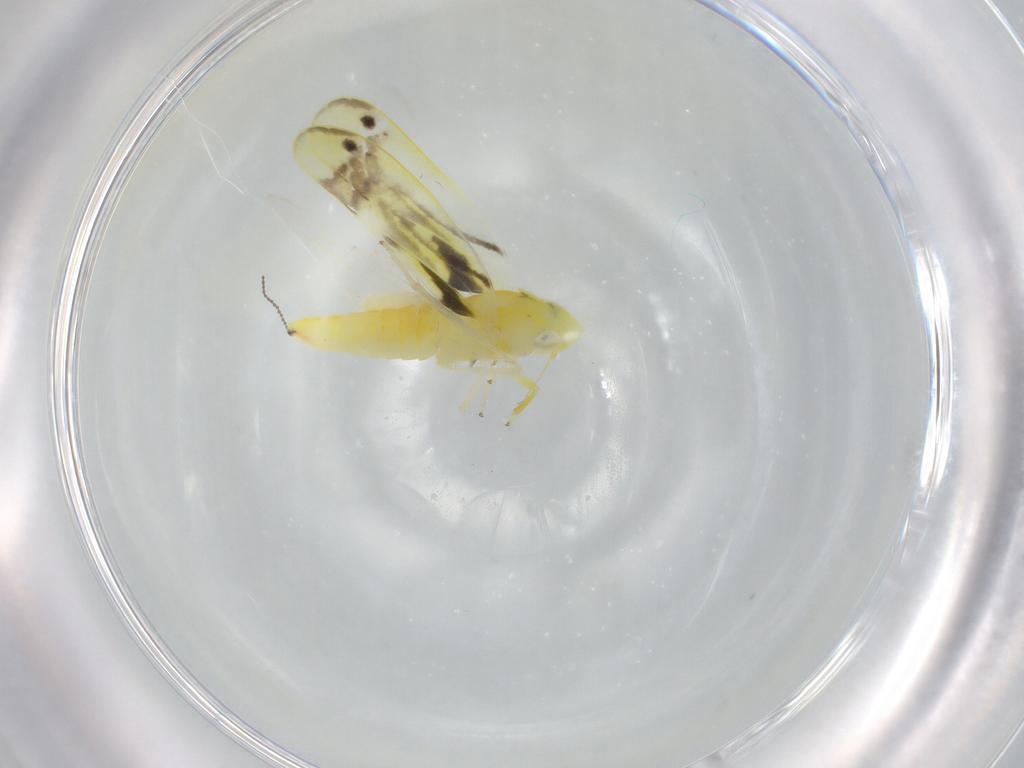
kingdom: Animalia
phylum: Arthropoda
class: Insecta
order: Hemiptera
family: Cicadellidae
